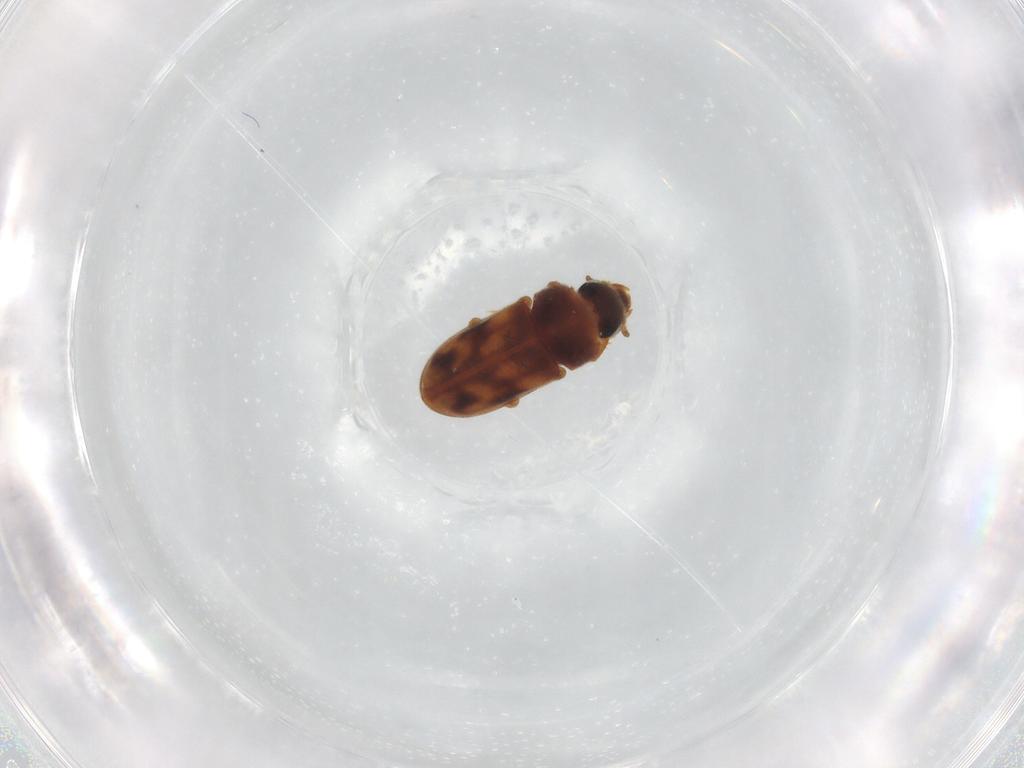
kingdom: Animalia
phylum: Arthropoda
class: Insecta
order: Coleoptera
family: Heteroceridae
